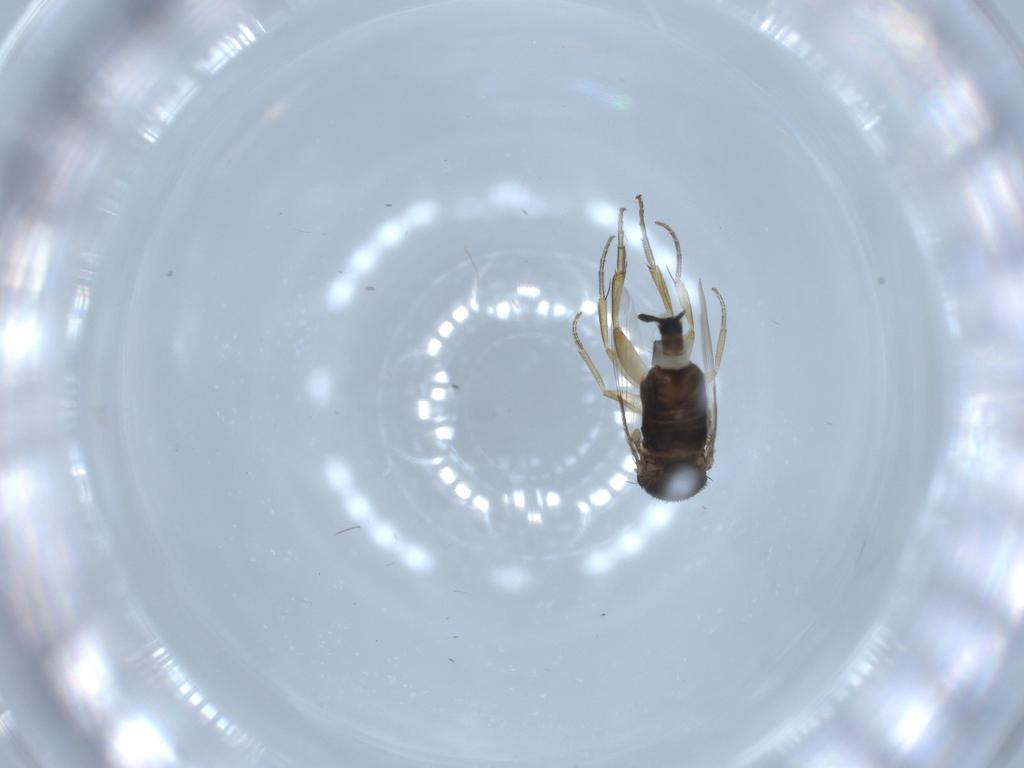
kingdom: Animalia
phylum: Arthropoda
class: Insecta
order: Diptera
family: Phoridae
